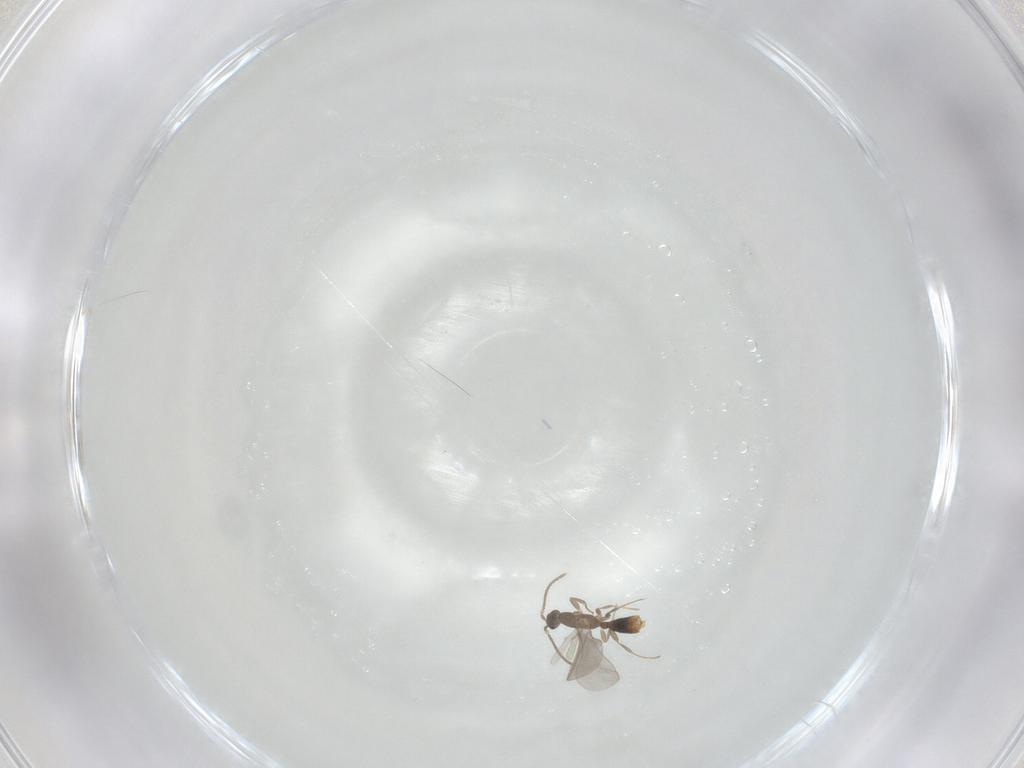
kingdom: Animalia
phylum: Arthropoda
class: Insecta
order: Hymenoptera
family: Formicidae
